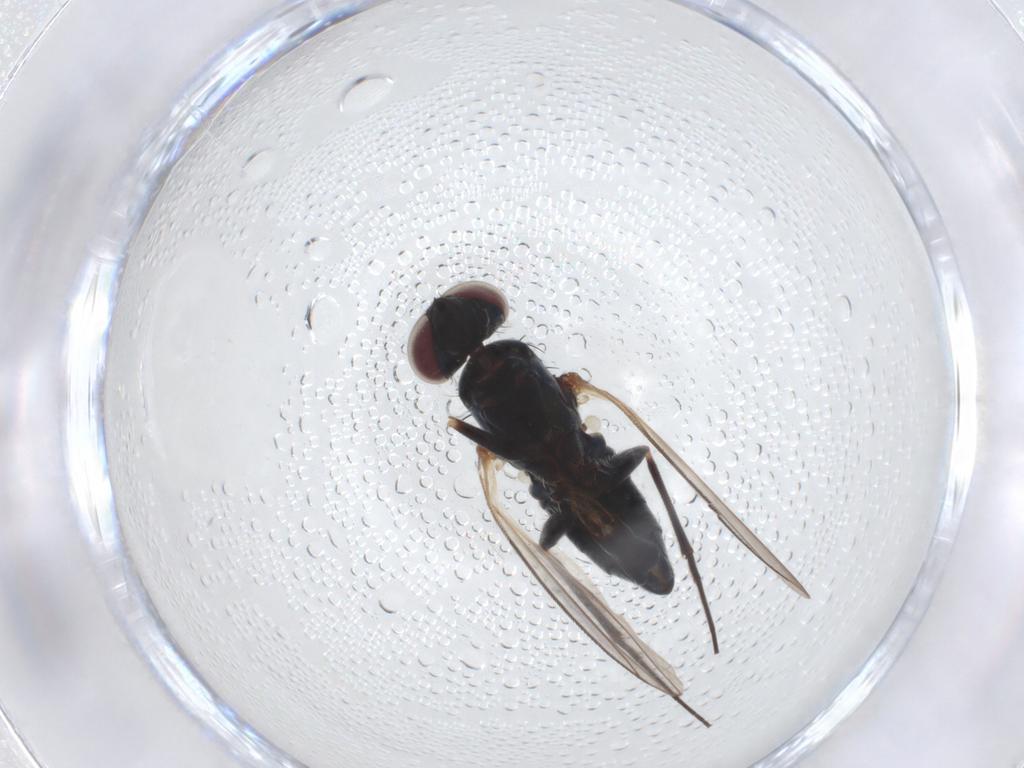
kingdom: Animalia
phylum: Arthropoda
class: Insecta
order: Diptera
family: Dolichopodidae
